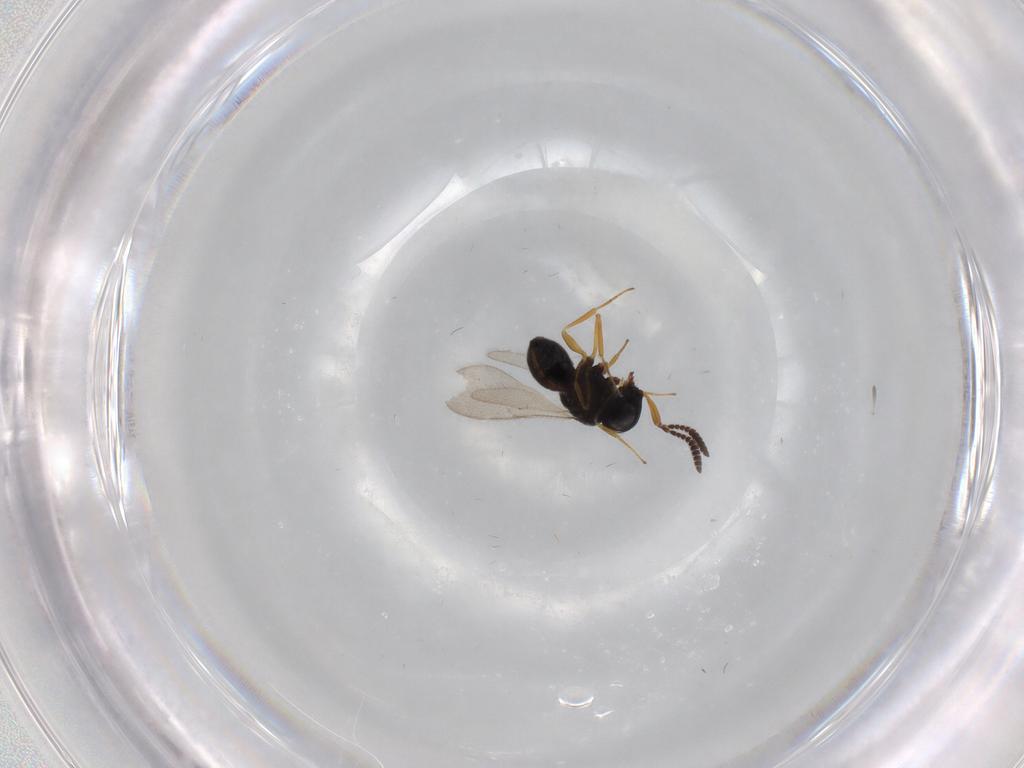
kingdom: Animalia
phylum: Arthropoda
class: Insecta
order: Hymenoptera
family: Scelionidae
